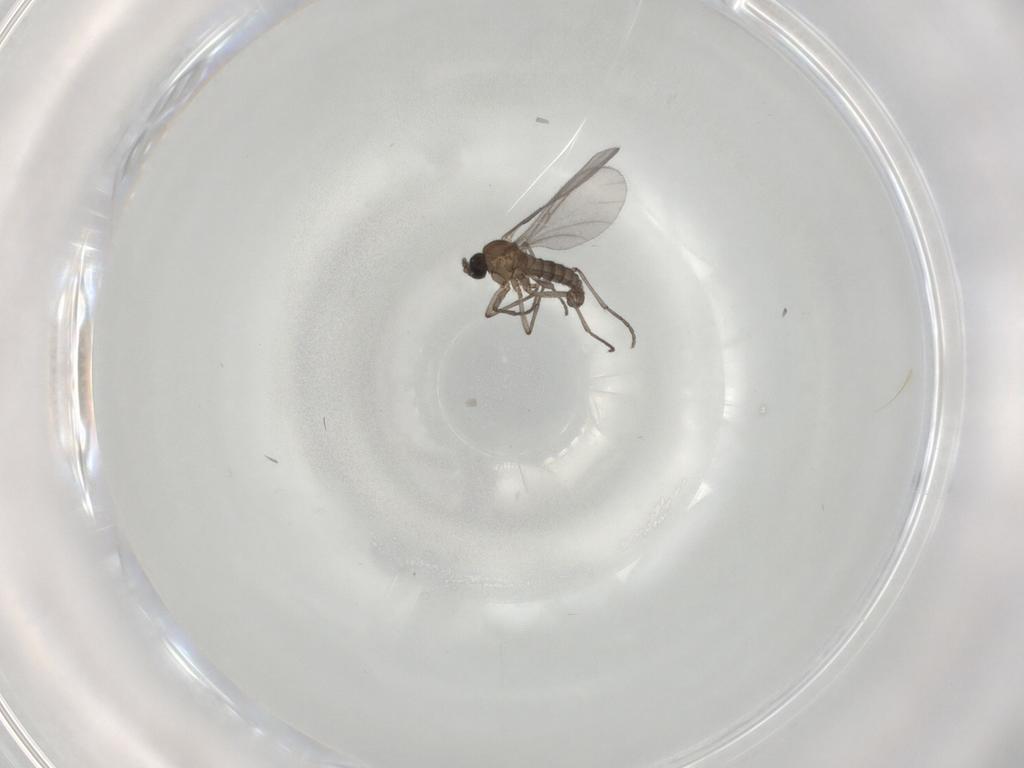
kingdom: Animalia
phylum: Arthropoda
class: Insecta
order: Diptera
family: Sciaridae
